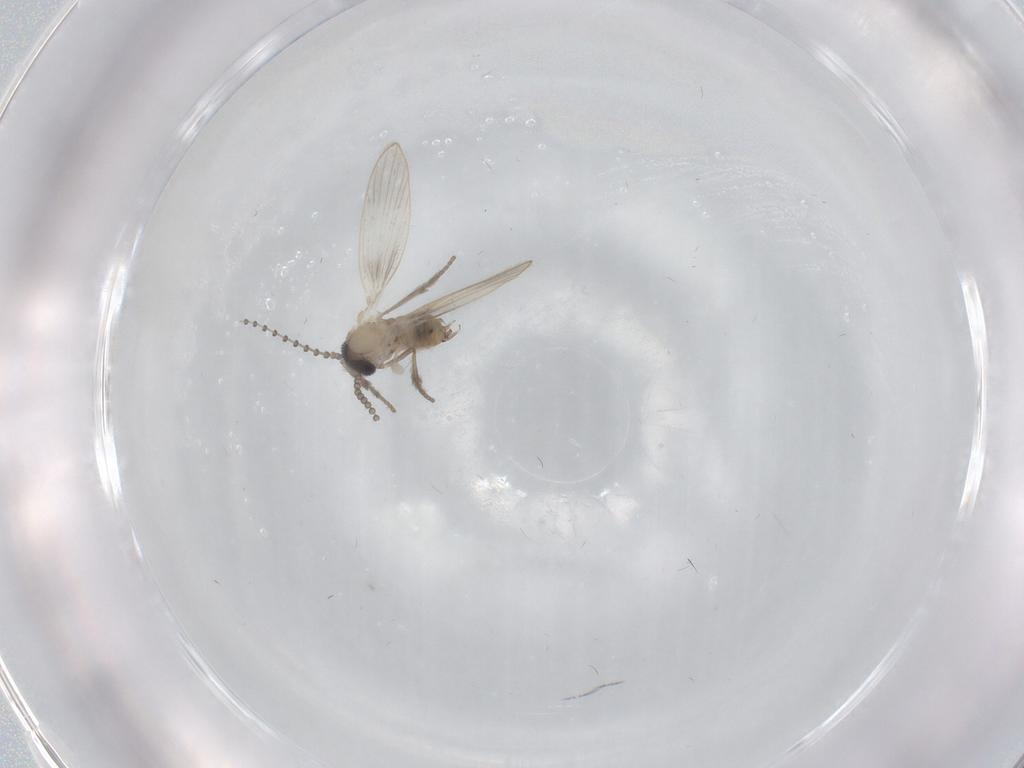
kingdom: Animalia
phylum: Arthropoda
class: Insecta
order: Diptera
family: Psychodidae
